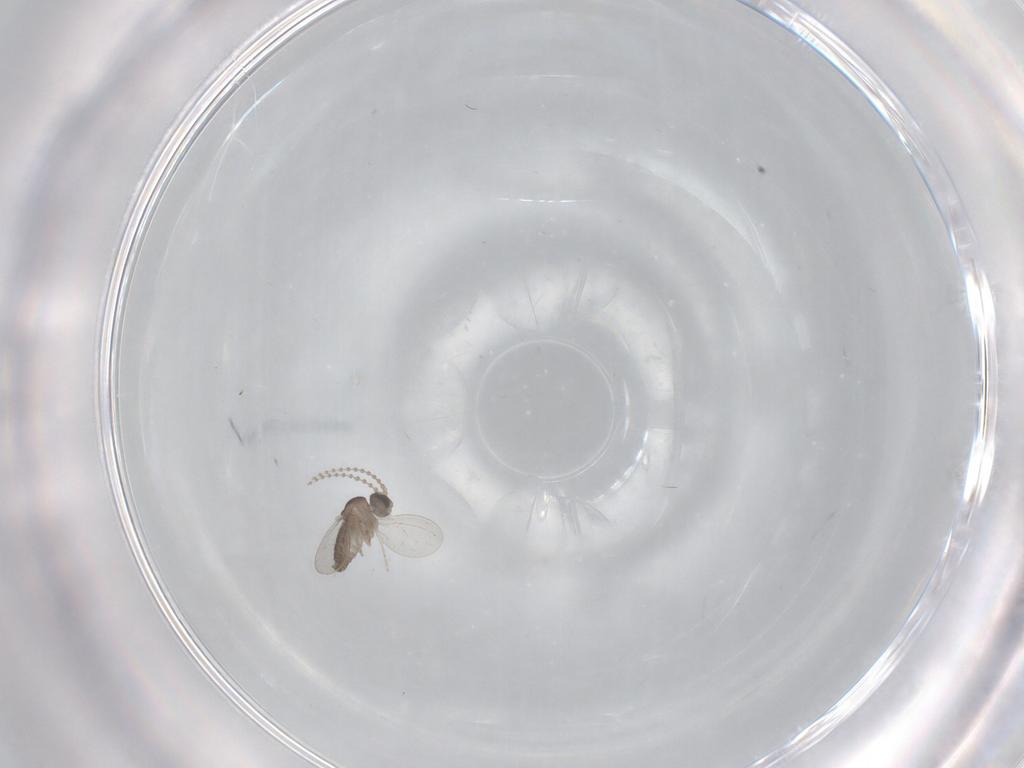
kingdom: Animalia
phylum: Arthropoda
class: Insecta
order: Diptera
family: Cecidomyiidae
